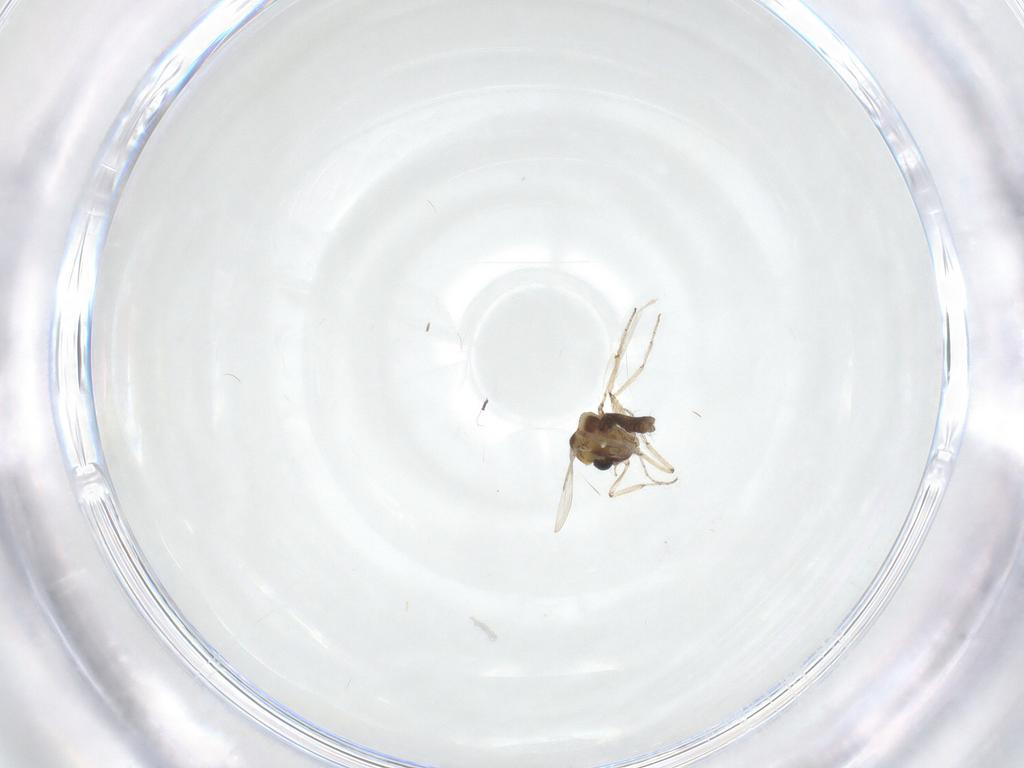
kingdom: Animalia
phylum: Arthropoda
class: Insecta
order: Diptera
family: Ceratopogonidae
